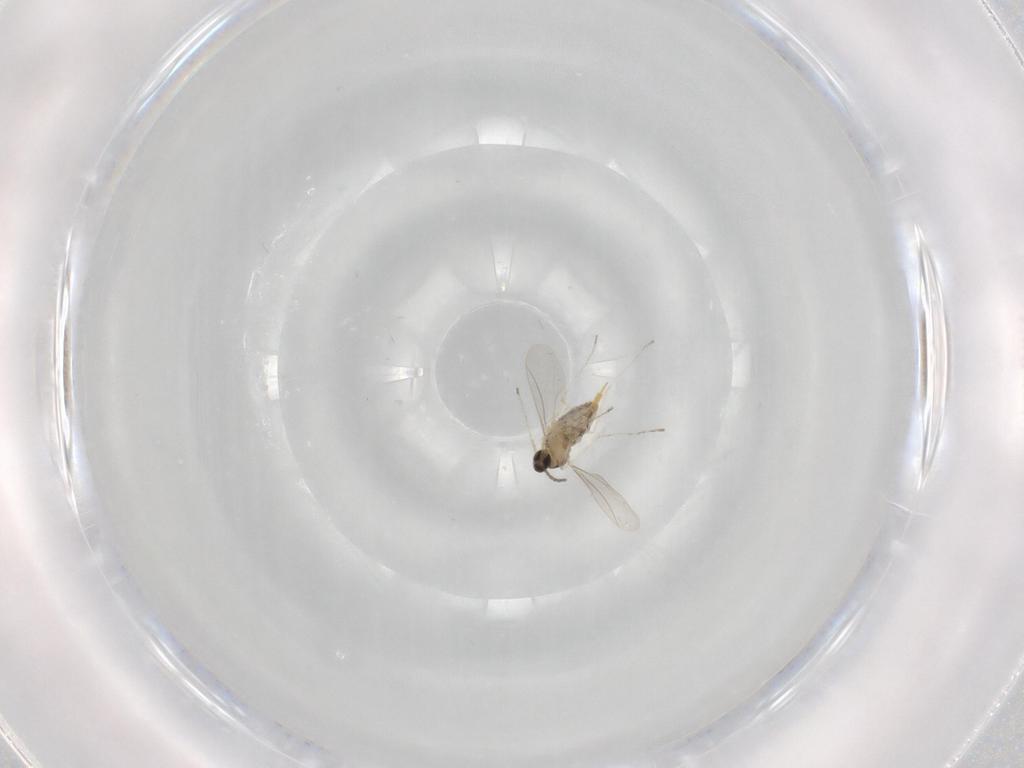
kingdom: Animalia
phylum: Arthropoda
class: Insecta
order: Diptera
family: Cecidomyiidae
